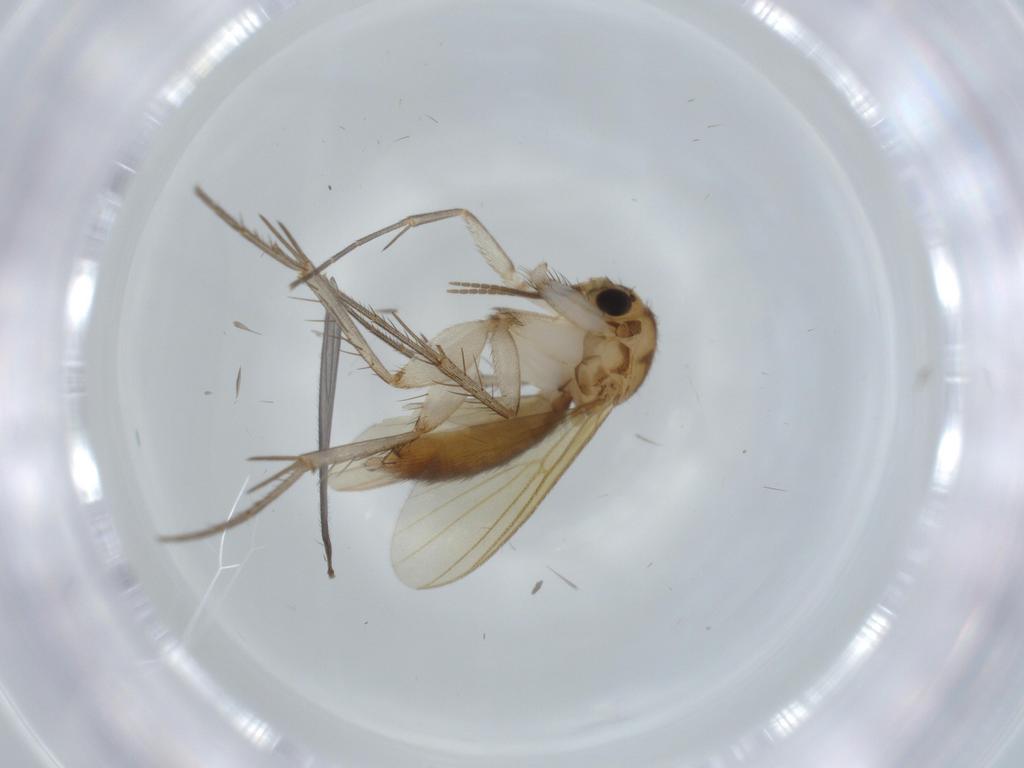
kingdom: Animalia
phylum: Arthropoda
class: Insecta
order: Diptera
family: Mycetophilidae
